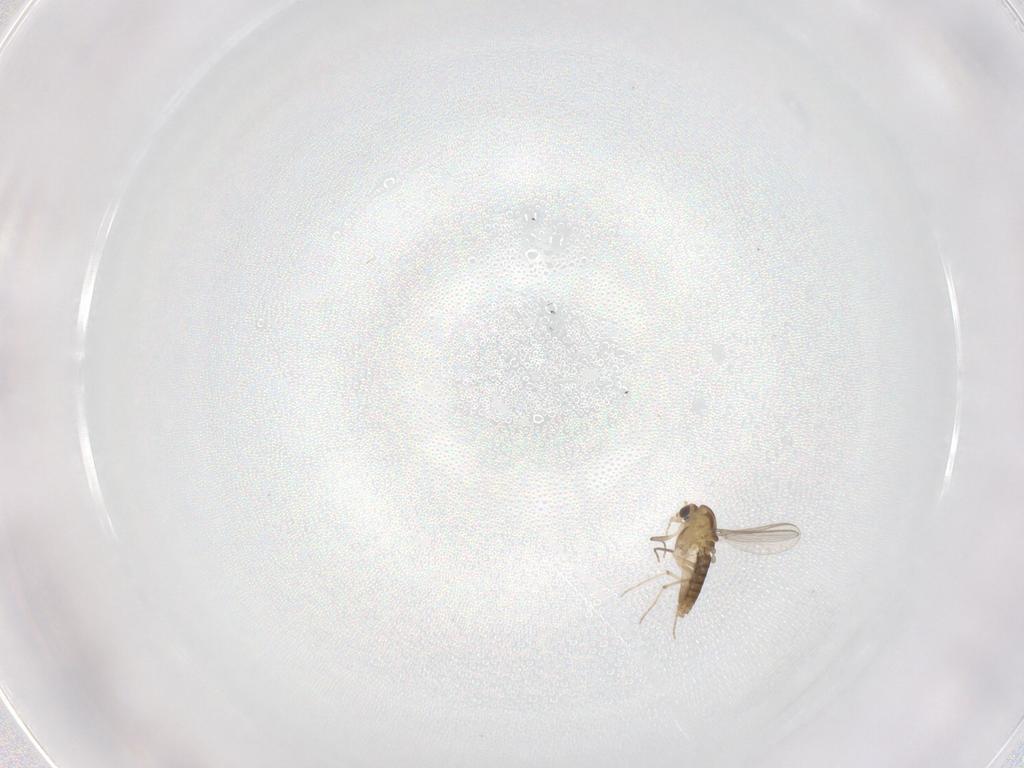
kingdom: Animalia
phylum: Arthropoda
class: Insecta
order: Diptera
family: Chironomidae
